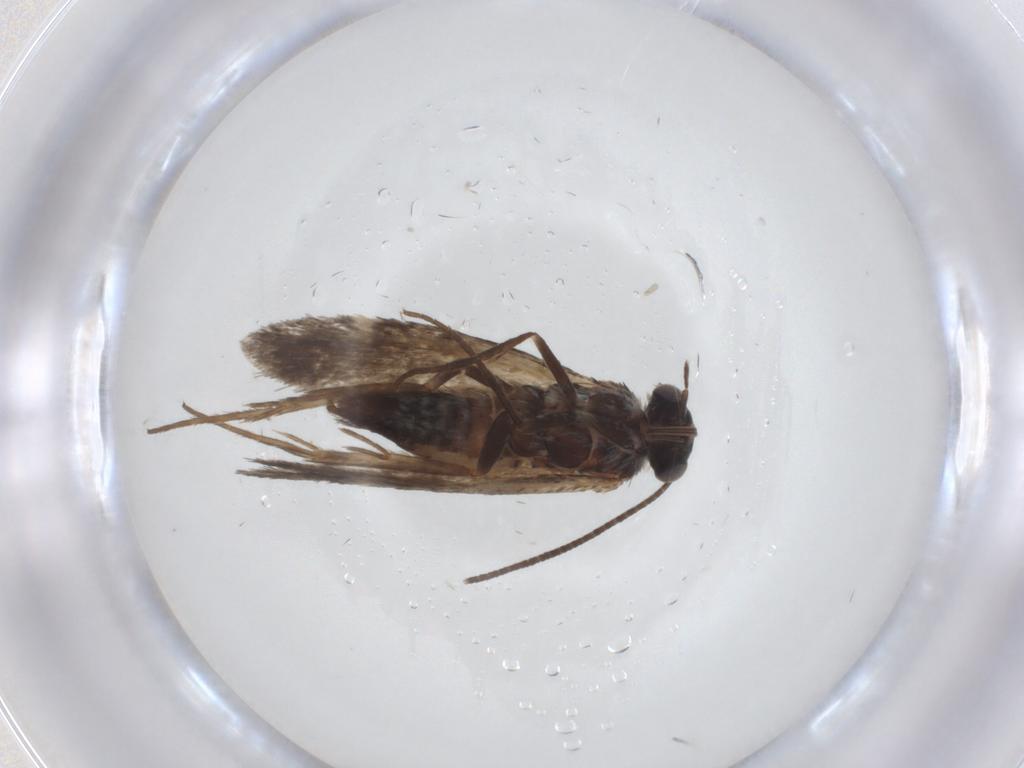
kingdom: Animalia
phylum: Arthropoda
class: Insecta
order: Lepidoptera
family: Adelidae
